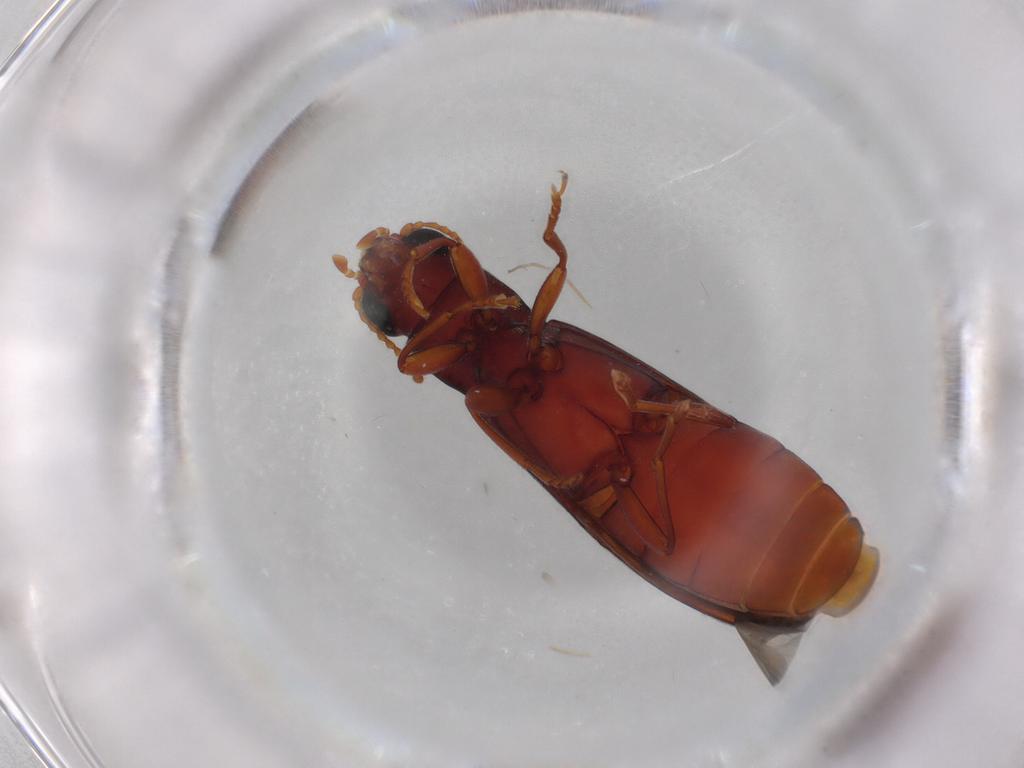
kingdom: Animalia
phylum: Arthropoda
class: Insecta
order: Coleoptera
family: Mycteridae
